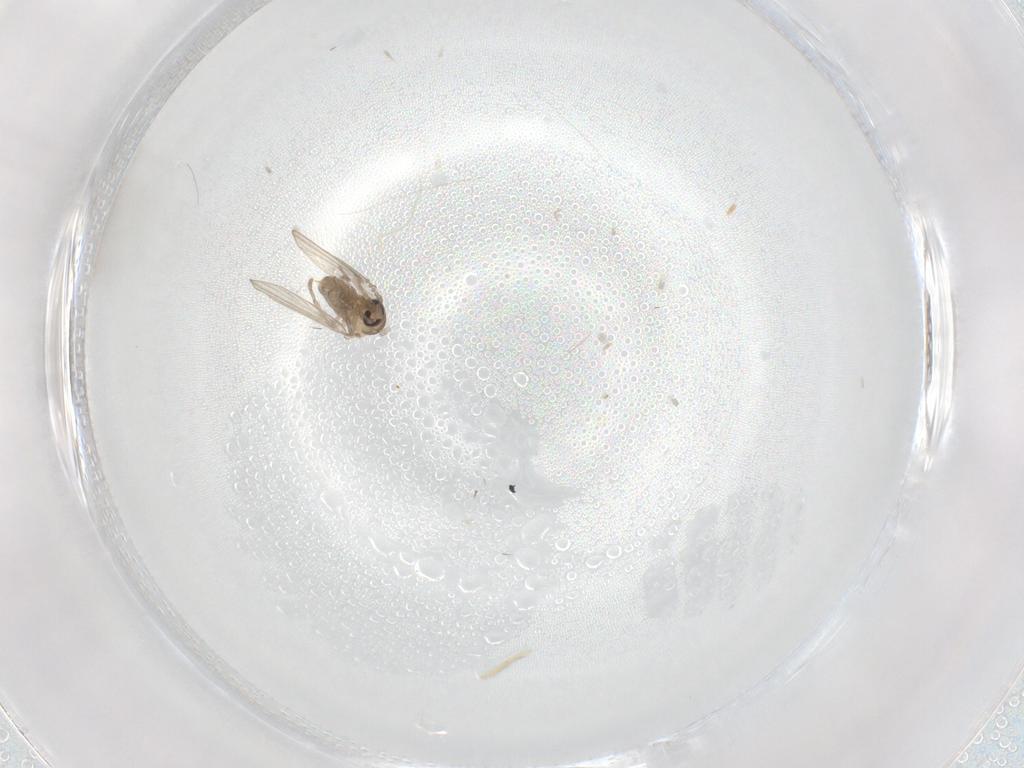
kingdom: Animalia
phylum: Arthropoda
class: Insecta
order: Diptera
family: Psychodidae
